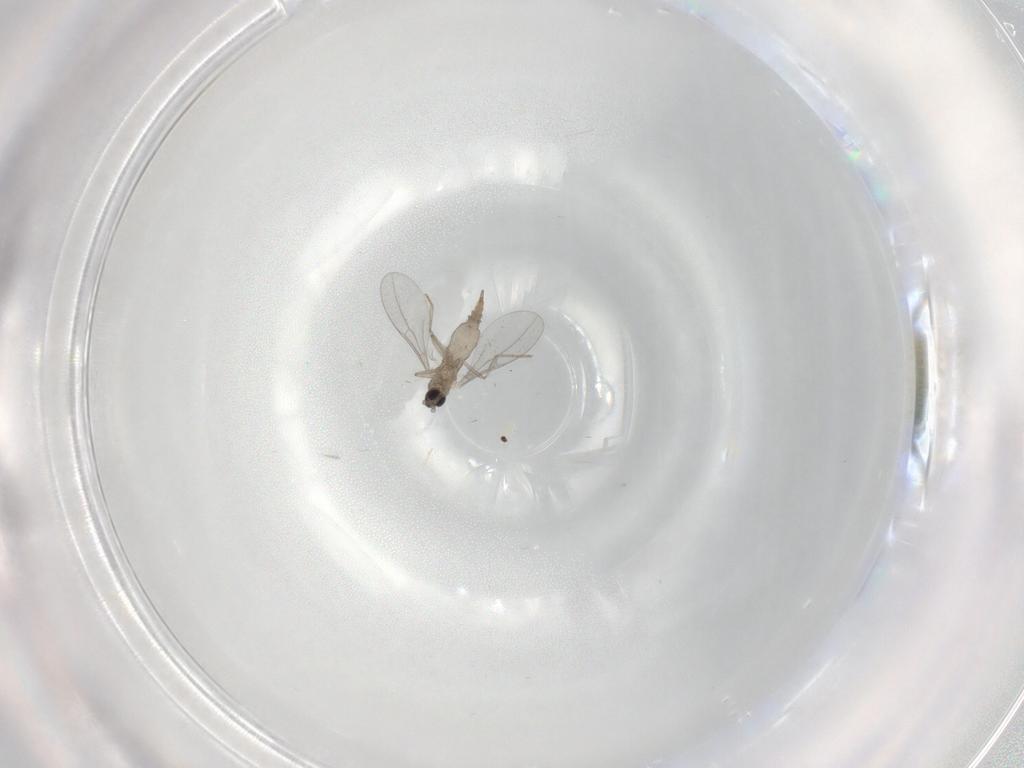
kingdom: Animalia
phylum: Arthropoda
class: Insecta
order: Diptera
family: Cecidomyiidae
